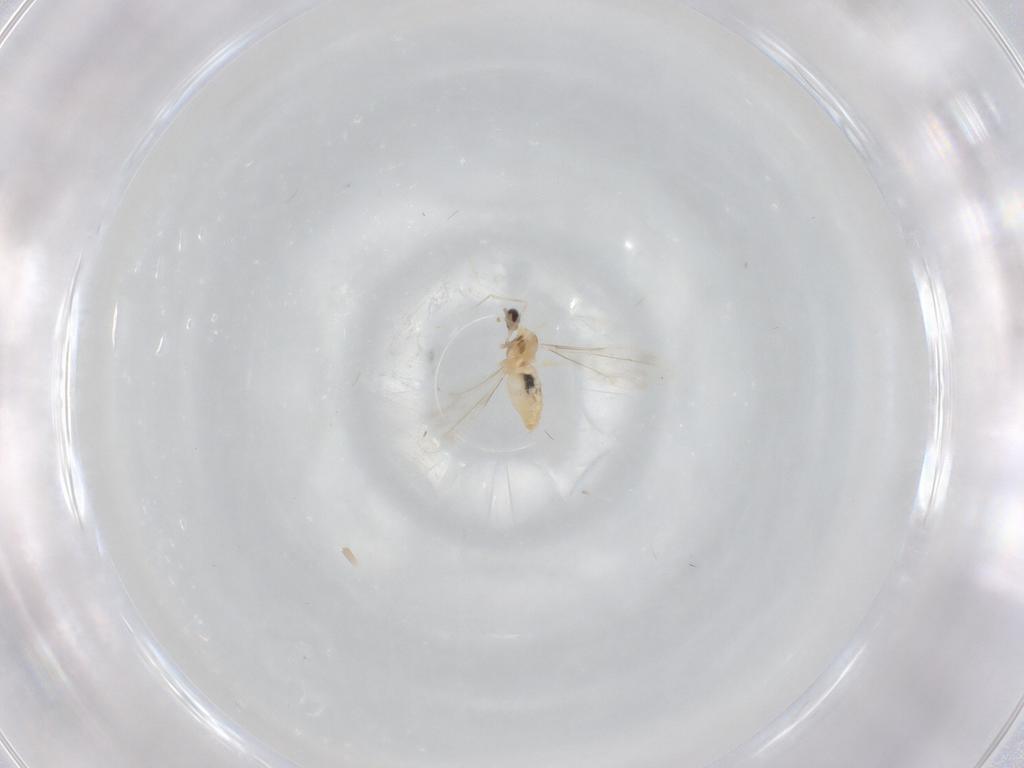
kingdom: Animalia
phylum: Arthropoda
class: Insecta
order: Diptera
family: Cecidomyiidae
